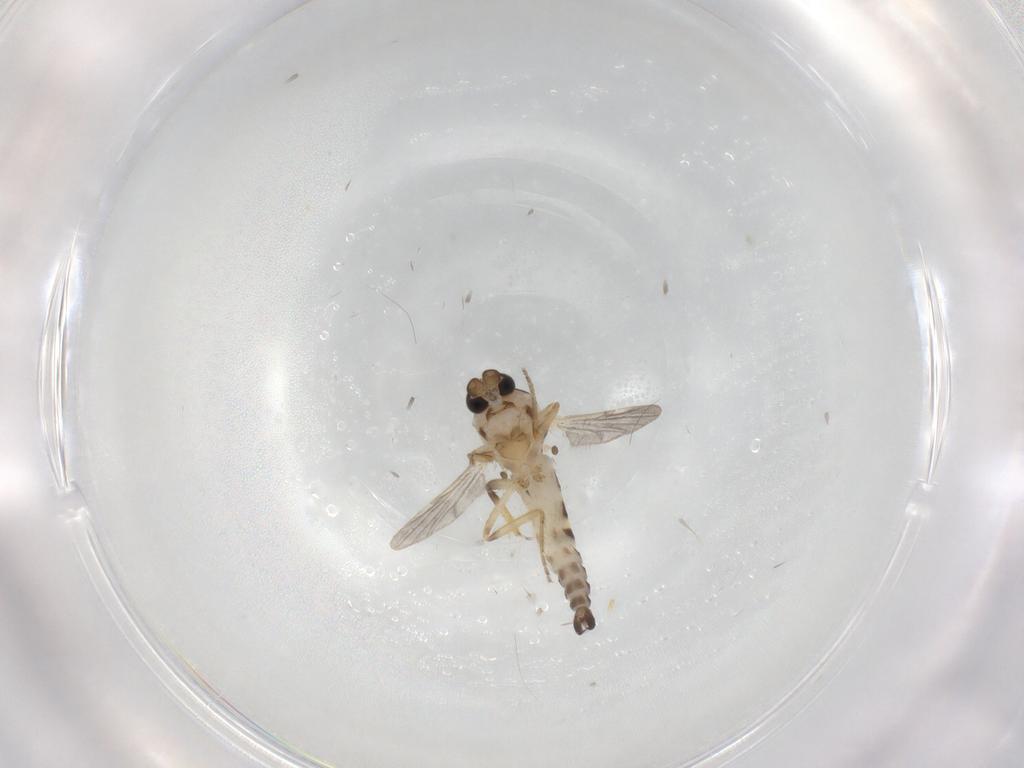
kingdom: Animalia
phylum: Arthropoda
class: Insecta
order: Diptera
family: Ceratopogonidae
